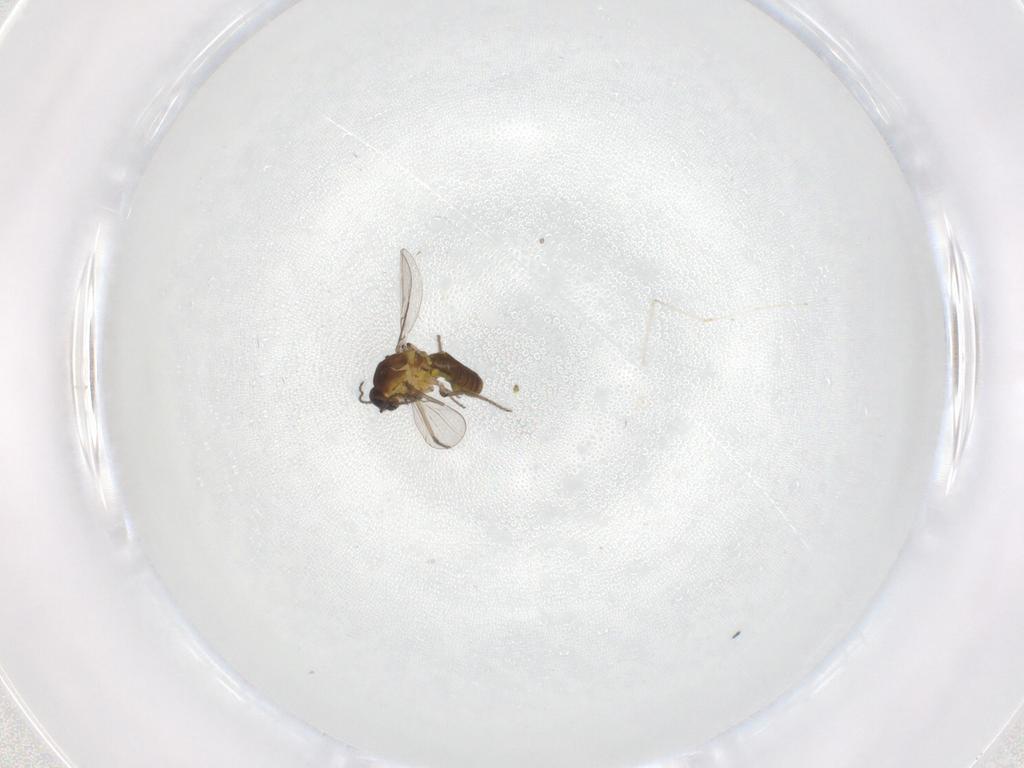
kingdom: Animalia
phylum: Arthropoda
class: Insecta
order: Diptera
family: Ceratopogonidae
